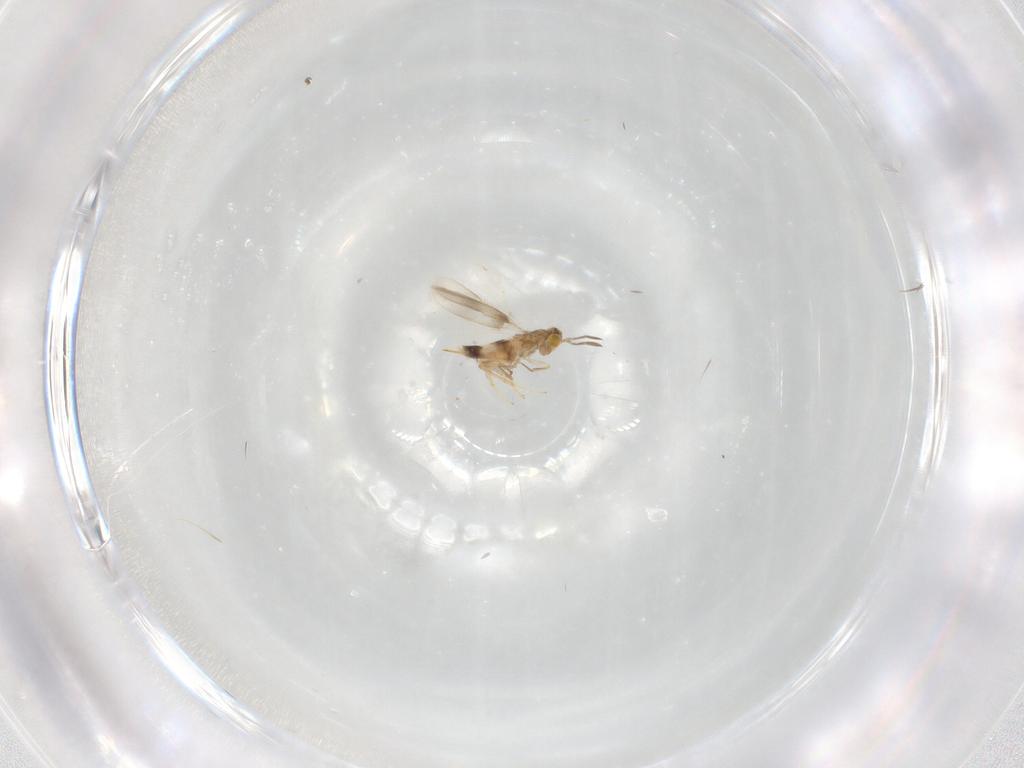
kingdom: Animalia
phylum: Arthropoda
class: Insecta
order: Hymenoptera
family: Aphelinidae
